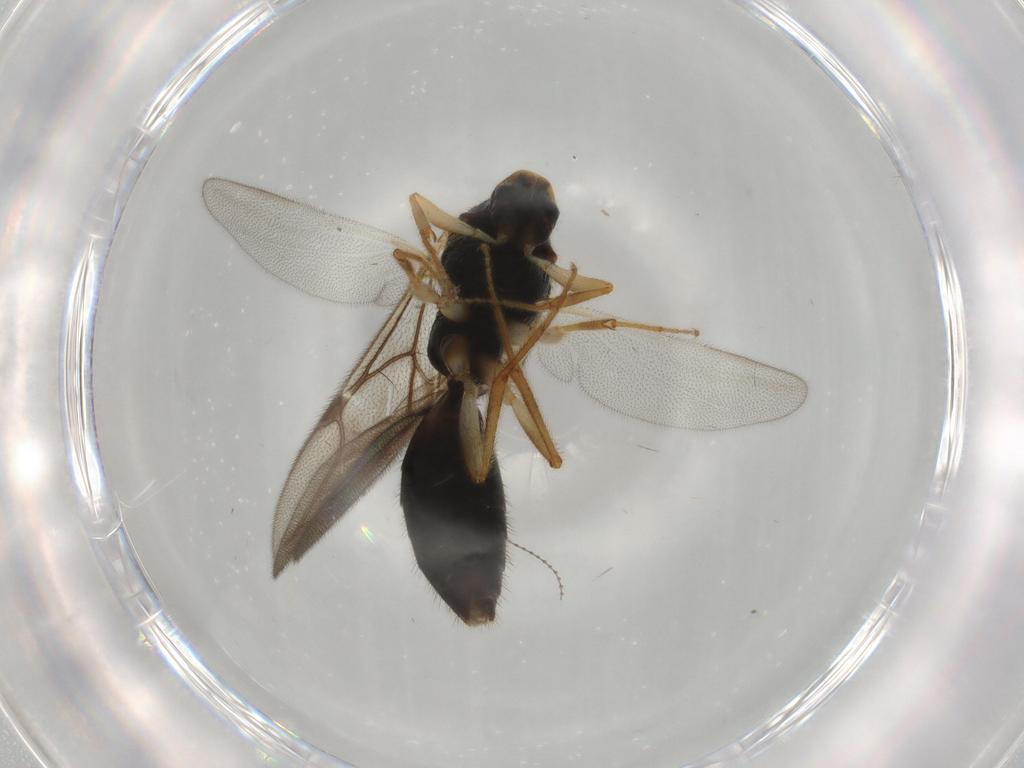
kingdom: Animalia
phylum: Arthropoda
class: Insecta
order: Hymenoptera
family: Bethylidae
